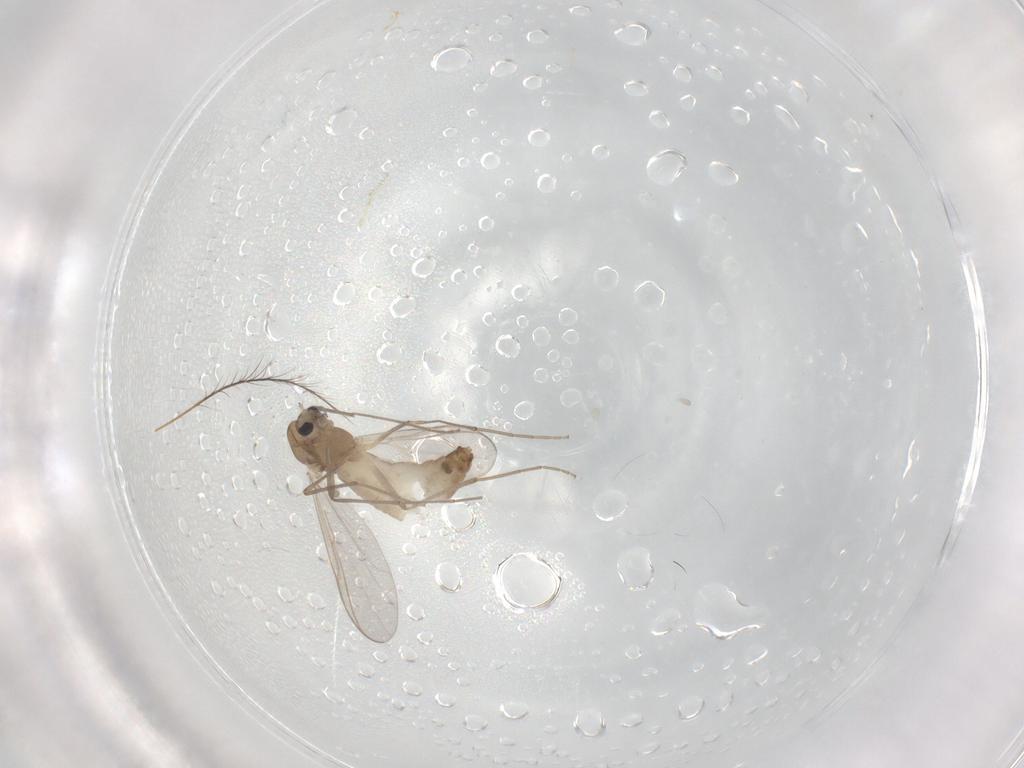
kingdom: Animalia
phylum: Arthropoda
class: Insecta
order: Diptera
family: Chironomidae
